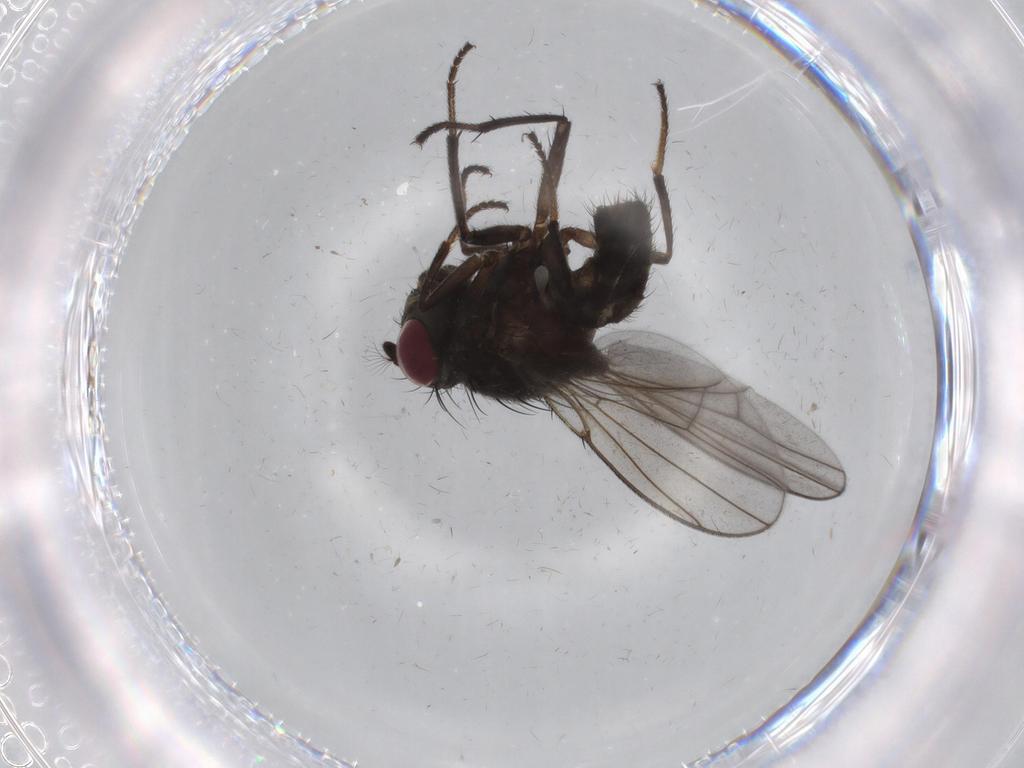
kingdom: Animalia
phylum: Arthropoda
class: Insecta
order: Diptera
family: Ephydridae
